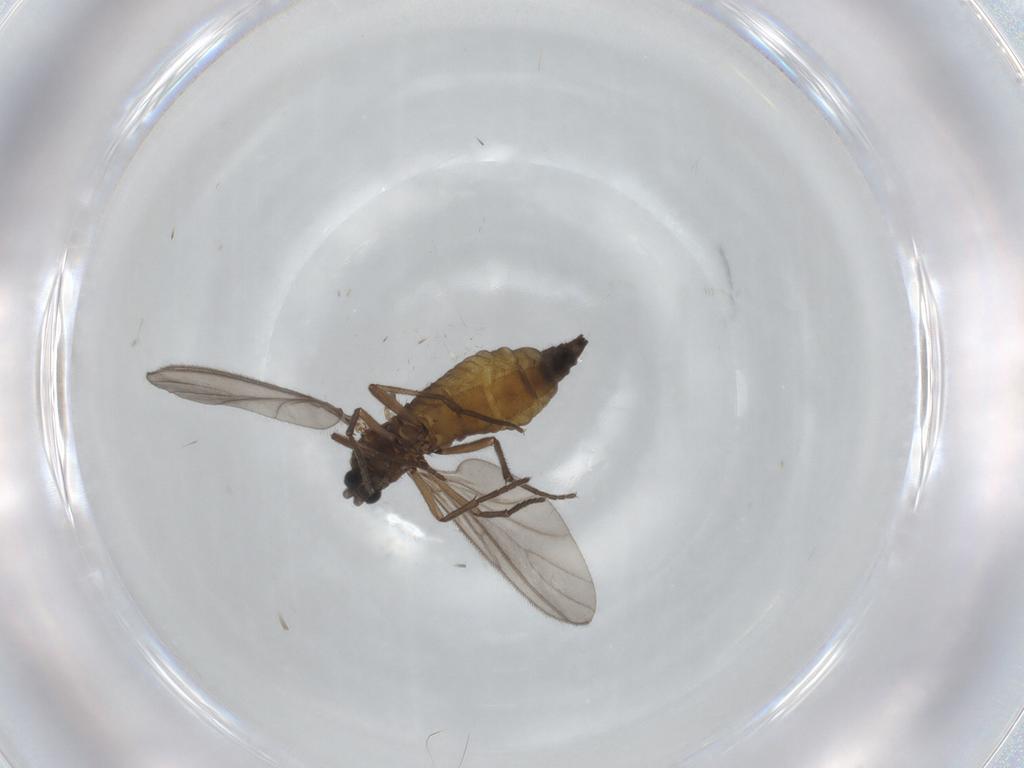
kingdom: Animalia
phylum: Arthropoda
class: Insecta
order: Diptera
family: Sciaridae
